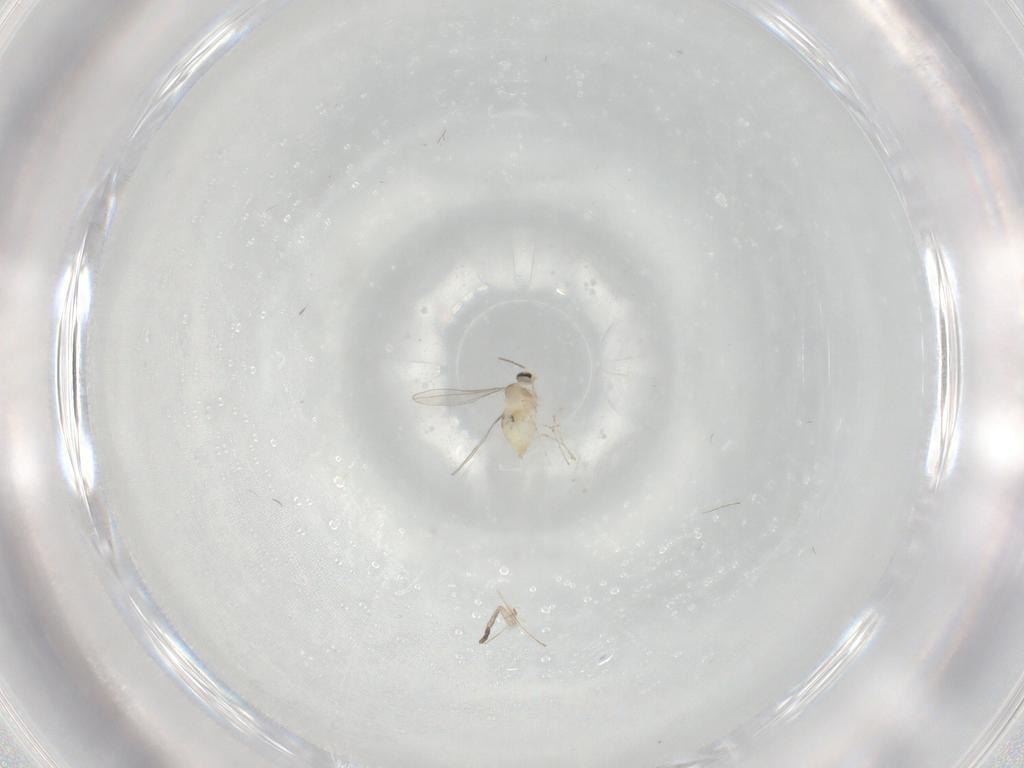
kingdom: Animalia
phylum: Arthropoda
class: Insecta
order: Diptera
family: Cecidomyiidae
